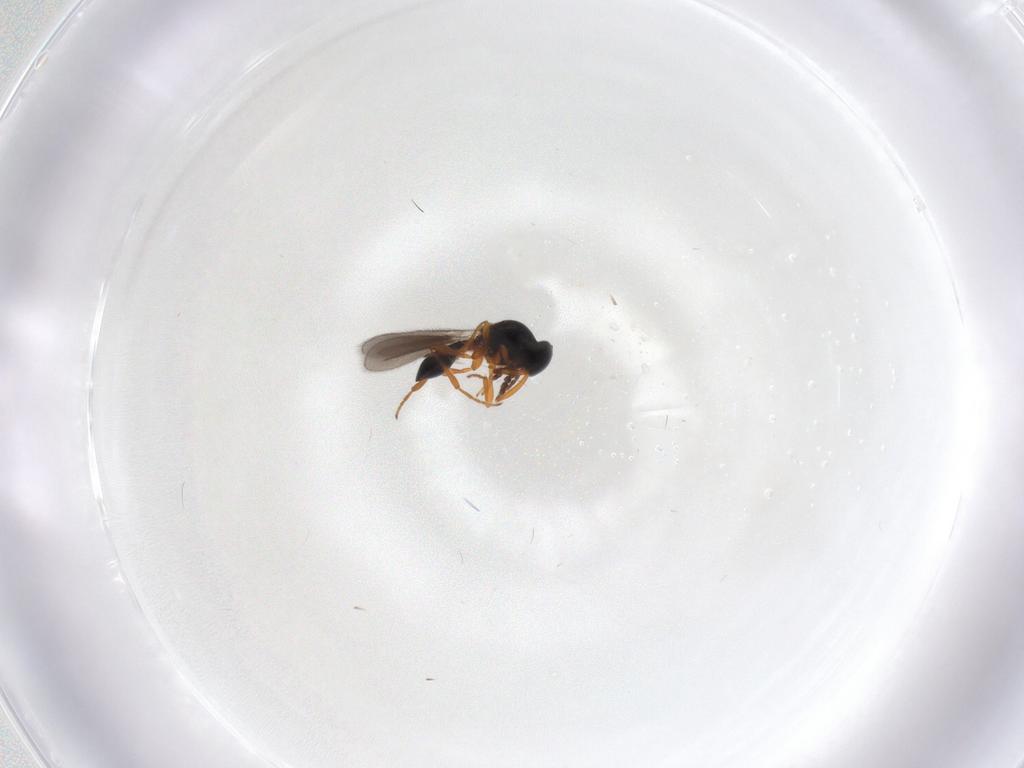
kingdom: Animalia
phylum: Arthropoda
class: Insecta
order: Hymenoptera
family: Platygastridae
